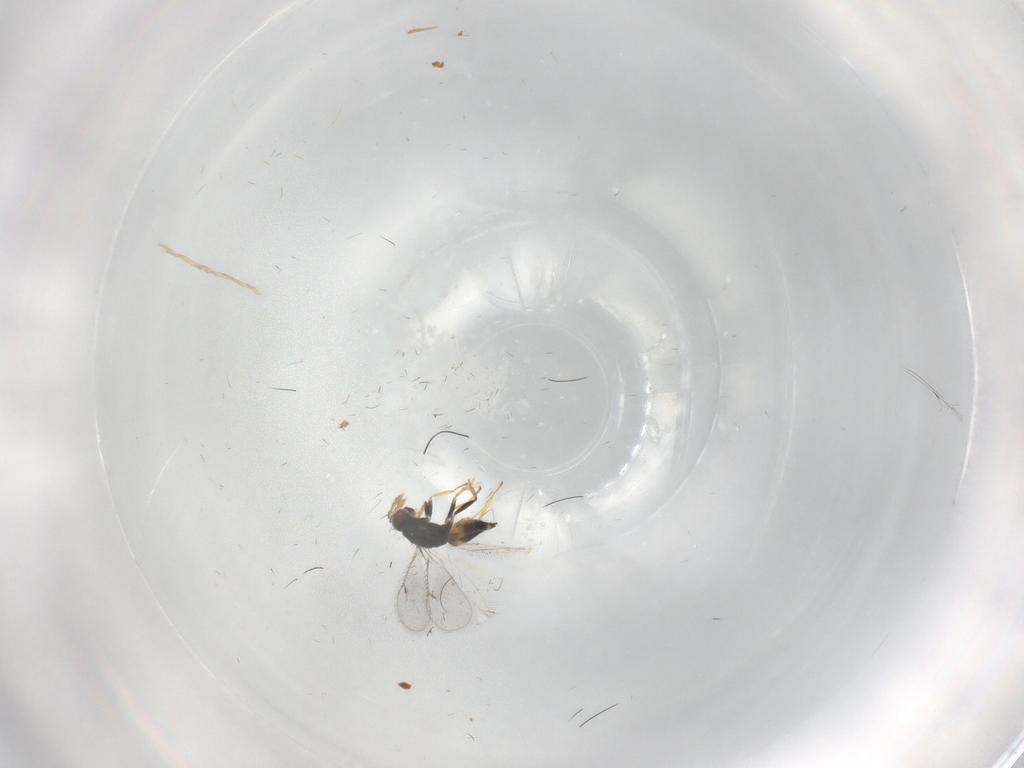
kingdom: Animalia
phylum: Arthropoda
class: Insecta
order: Hymenoptera
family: Eulophidae
